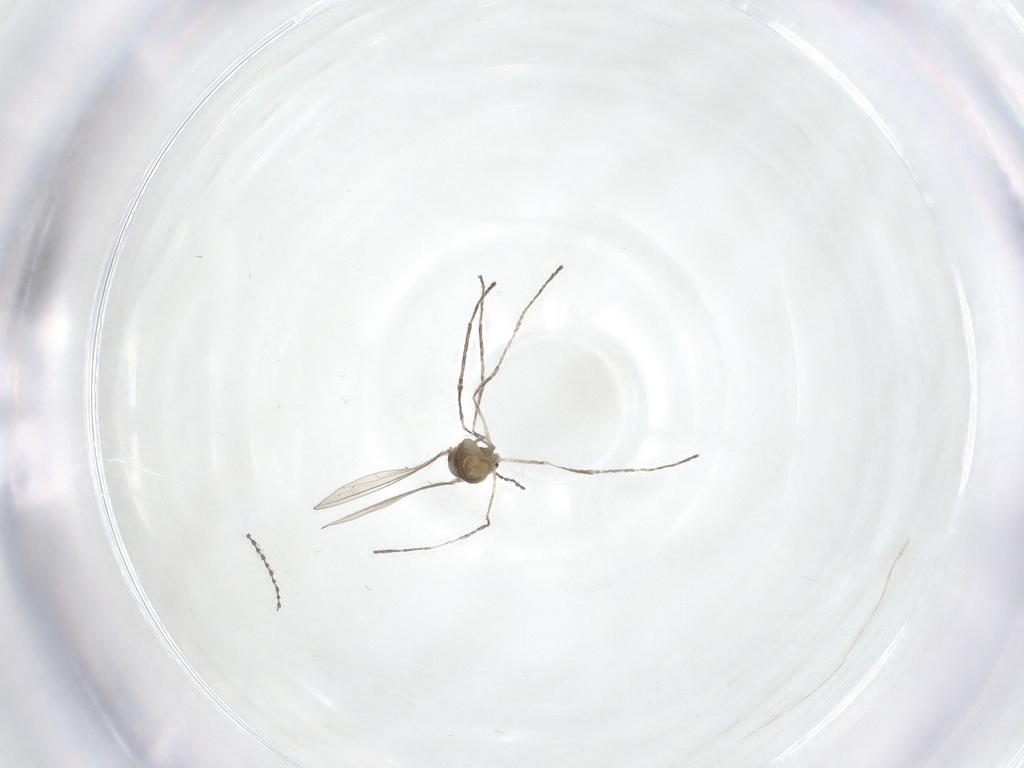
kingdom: Animalia
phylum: Arthropoda
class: Insecta
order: Diptera
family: Cecidomyiidae
